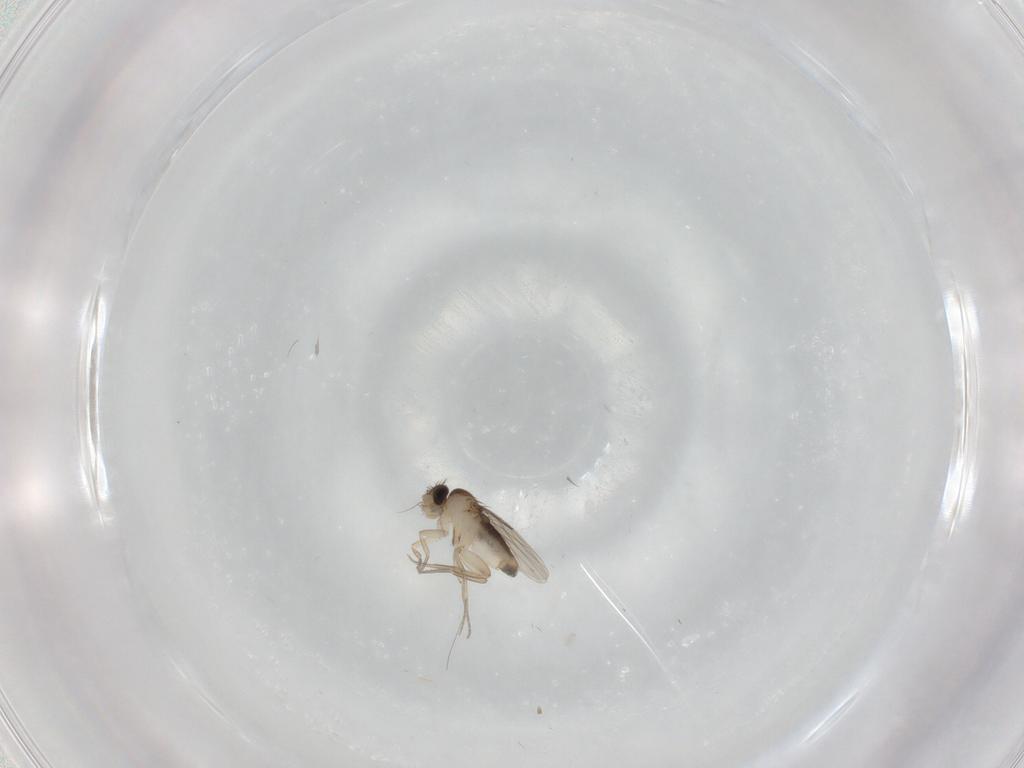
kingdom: Animalia
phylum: Arthropoda
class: Insecta
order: Diptera
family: Phoridae
